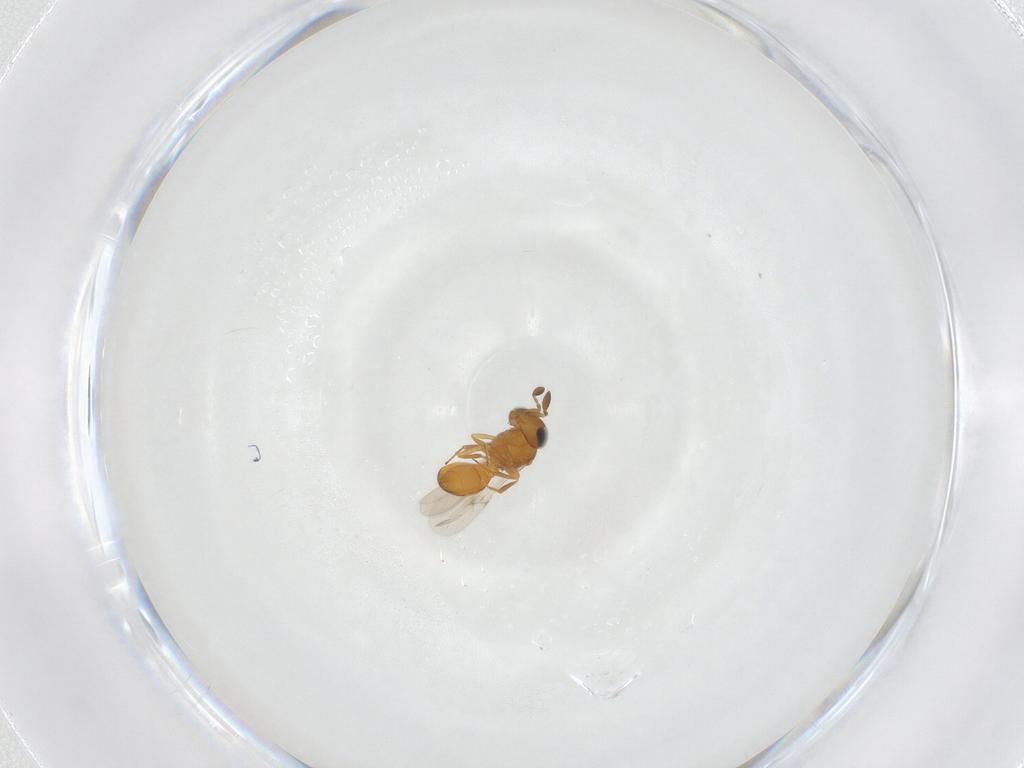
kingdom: Animalia
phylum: Arthropoda
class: Insecta
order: Hymenoptera
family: Scelionidae
